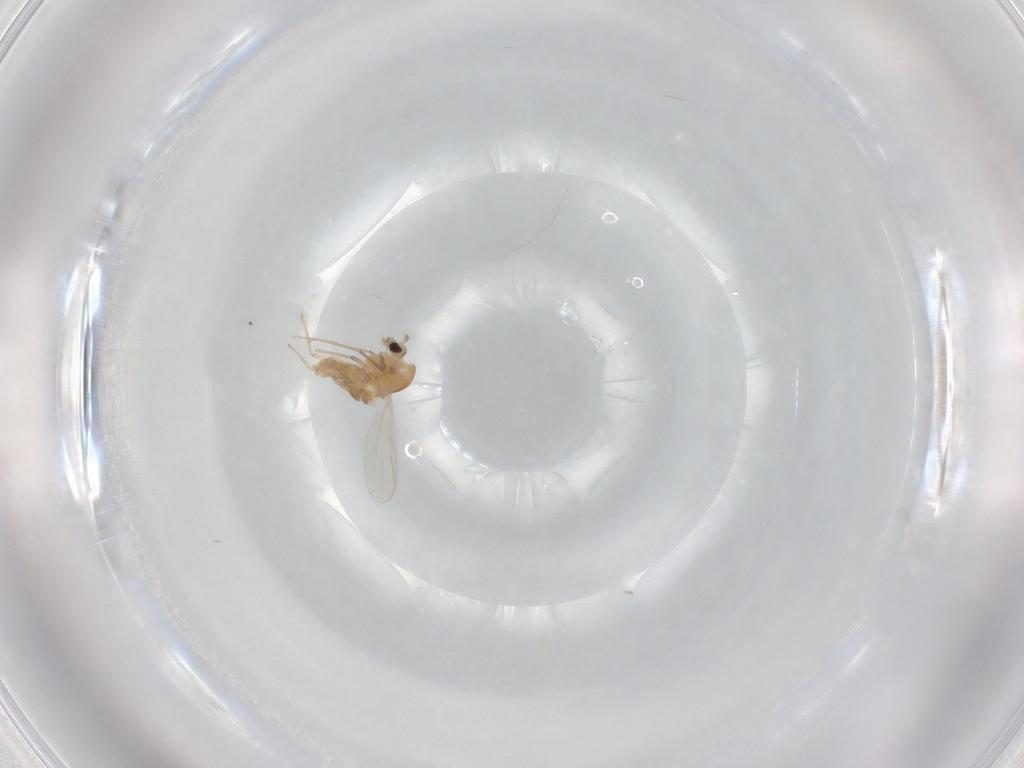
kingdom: Animalia
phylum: Arthropoda
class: Insecta
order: Diptera
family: Chironomidae
